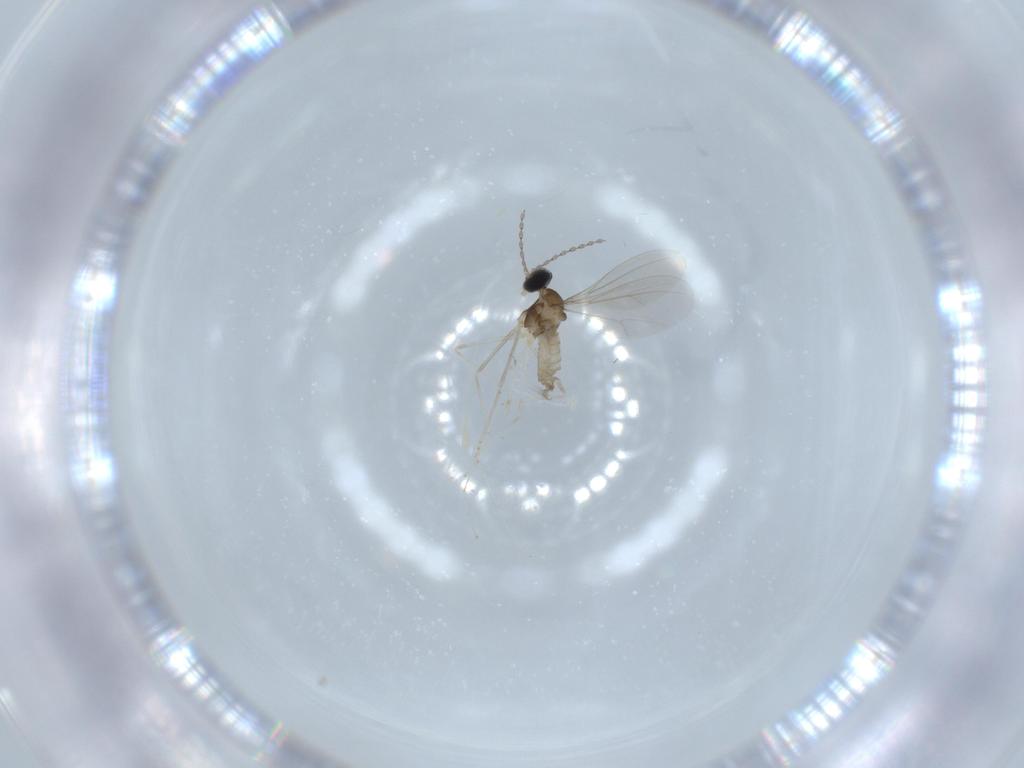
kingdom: Animalia
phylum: Arthropoda
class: Insecta
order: Diptera
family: Cecidomyiidae
